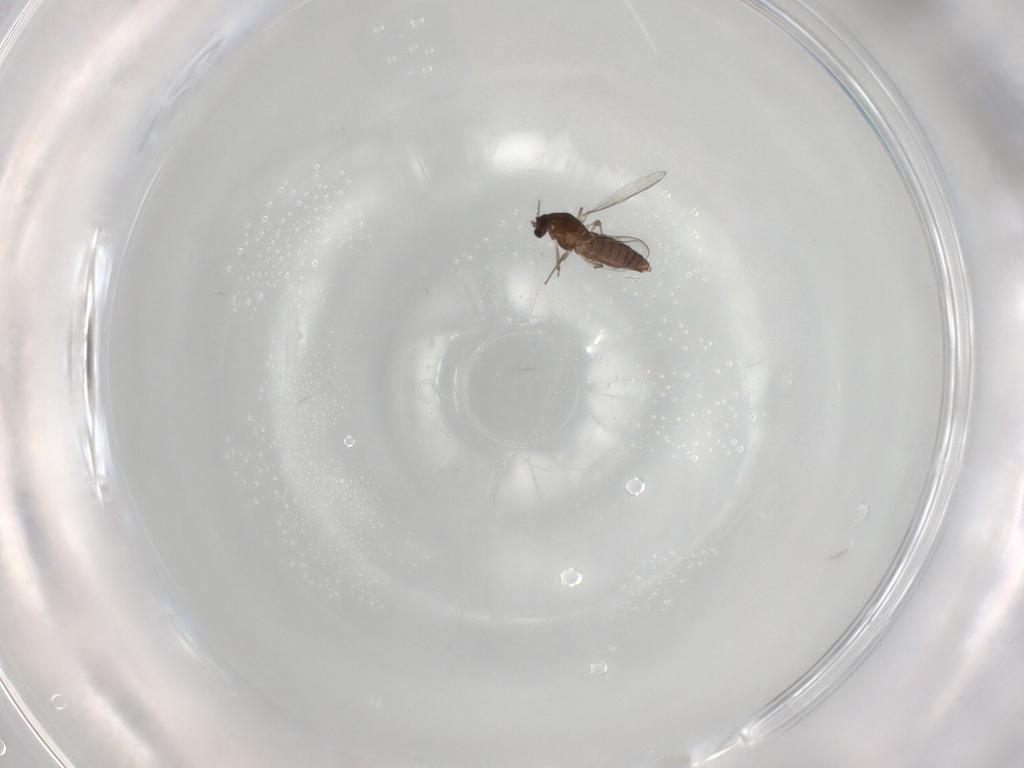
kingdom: Animalia
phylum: Arthropoda
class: Insecta
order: Diptera
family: Chironomidae
